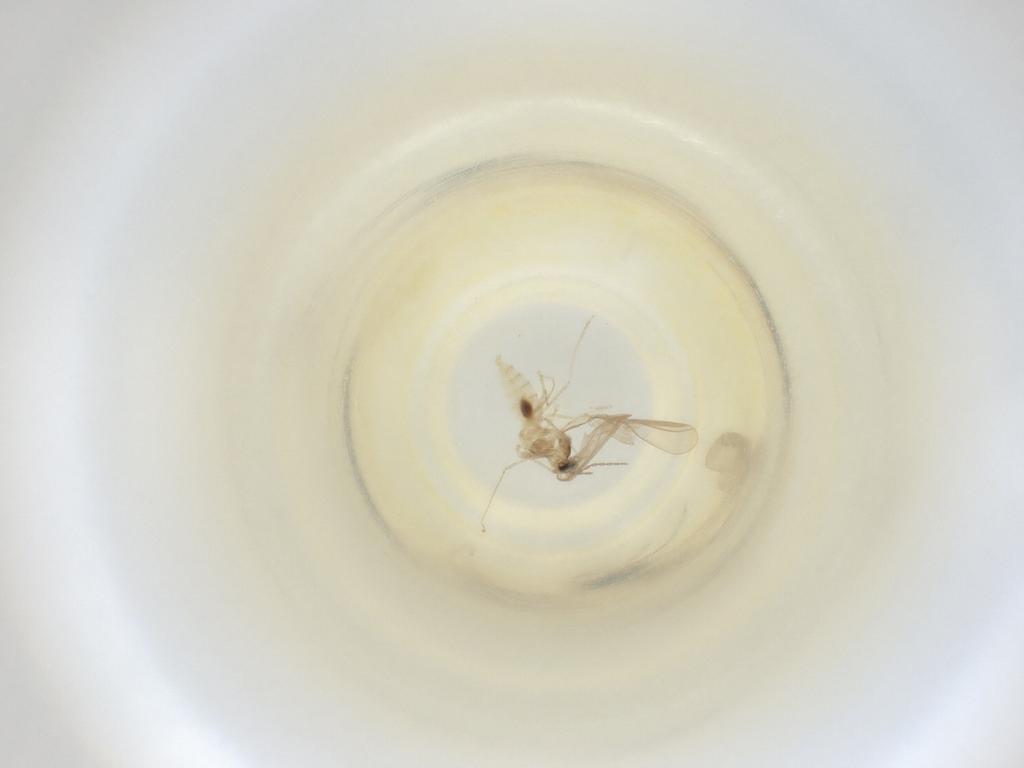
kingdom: Animalia
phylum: Arthropoda
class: Insecta
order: Diptera
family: Cecidomyiidae
